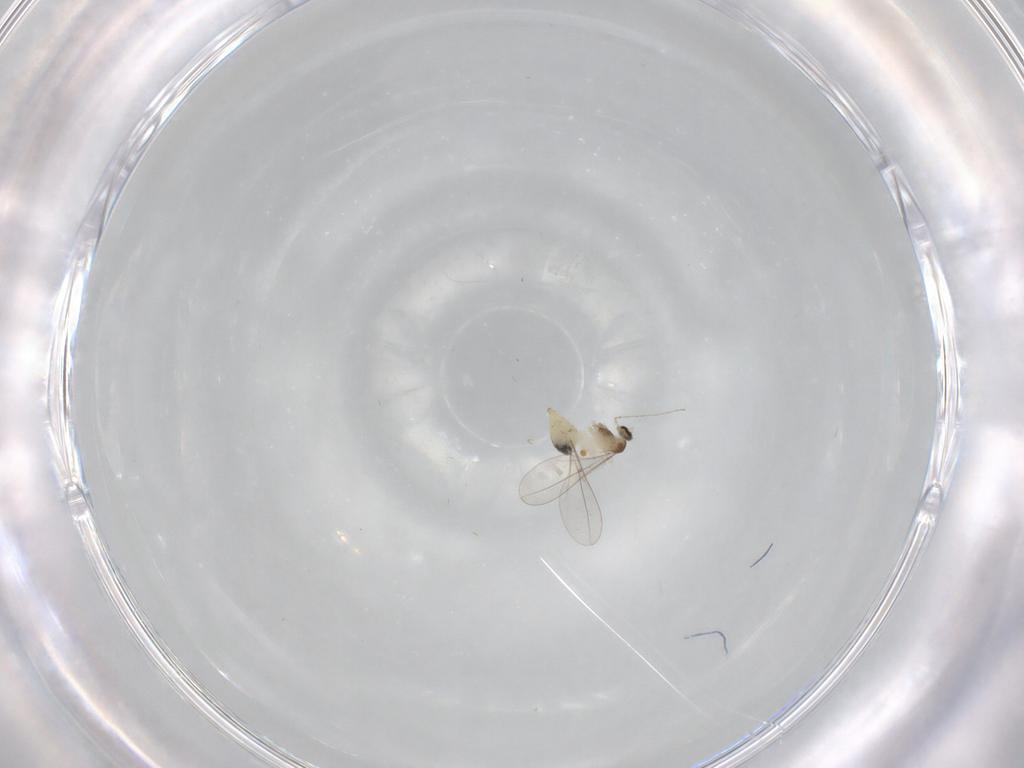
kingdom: Animalia
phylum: Arthropoda
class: Insecta
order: Diptera
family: Cecidomyiidae
